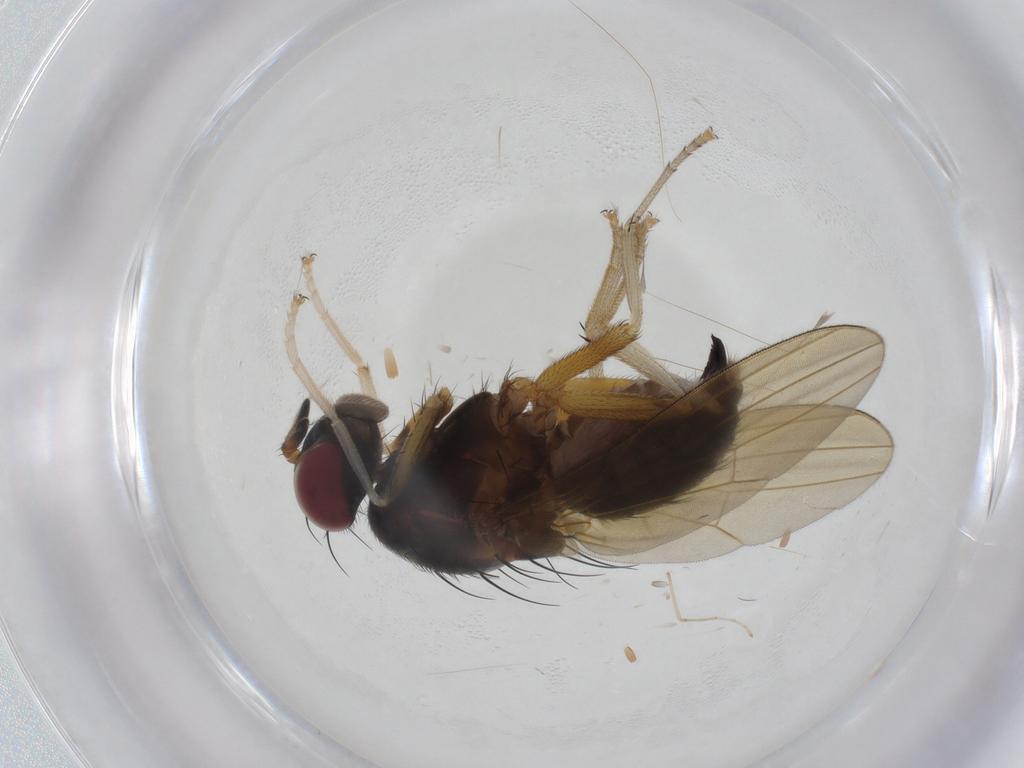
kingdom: Animalia
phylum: Arthropoda
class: Insecta
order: Diptera
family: Lauxaniidae
